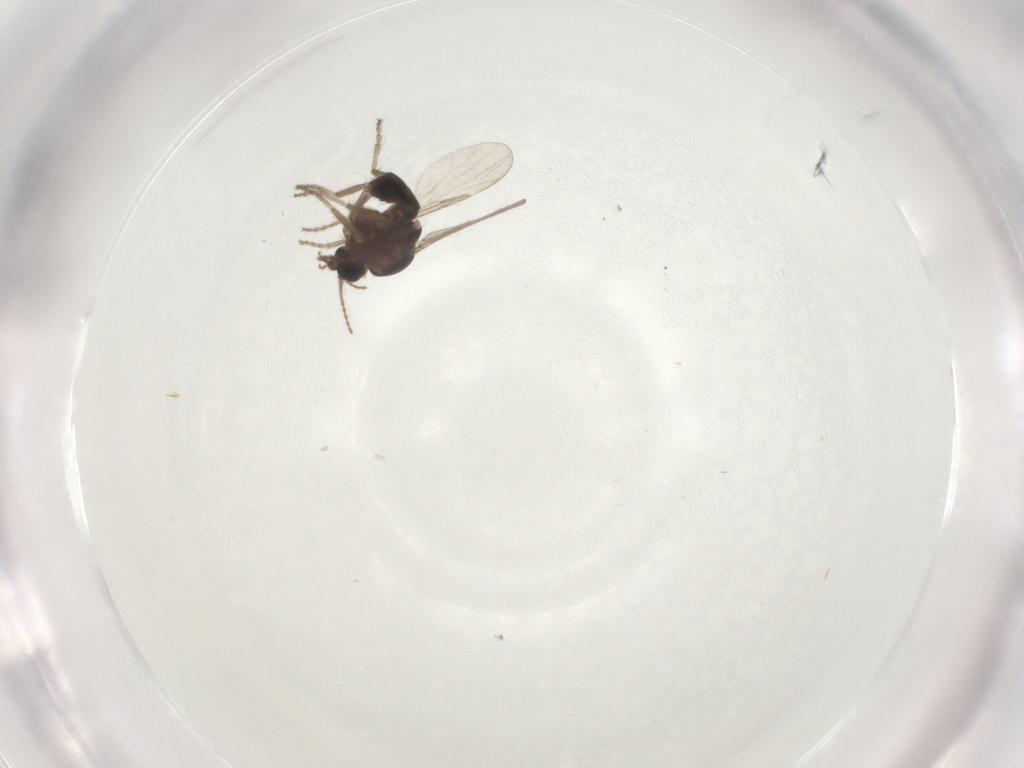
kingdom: Animalia
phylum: Arthropoda
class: Insecta
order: Diptera
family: Ceratopogonidae
